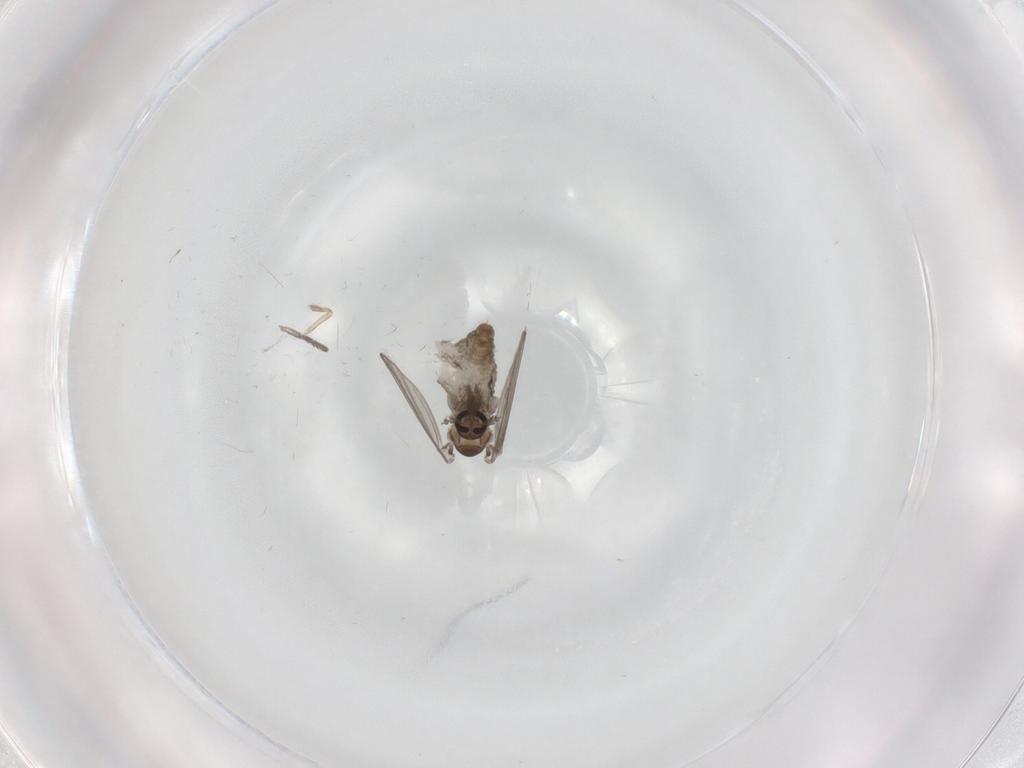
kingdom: Animalia
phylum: Arthropoda
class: Insecta
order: Diptera
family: Psychodidae
